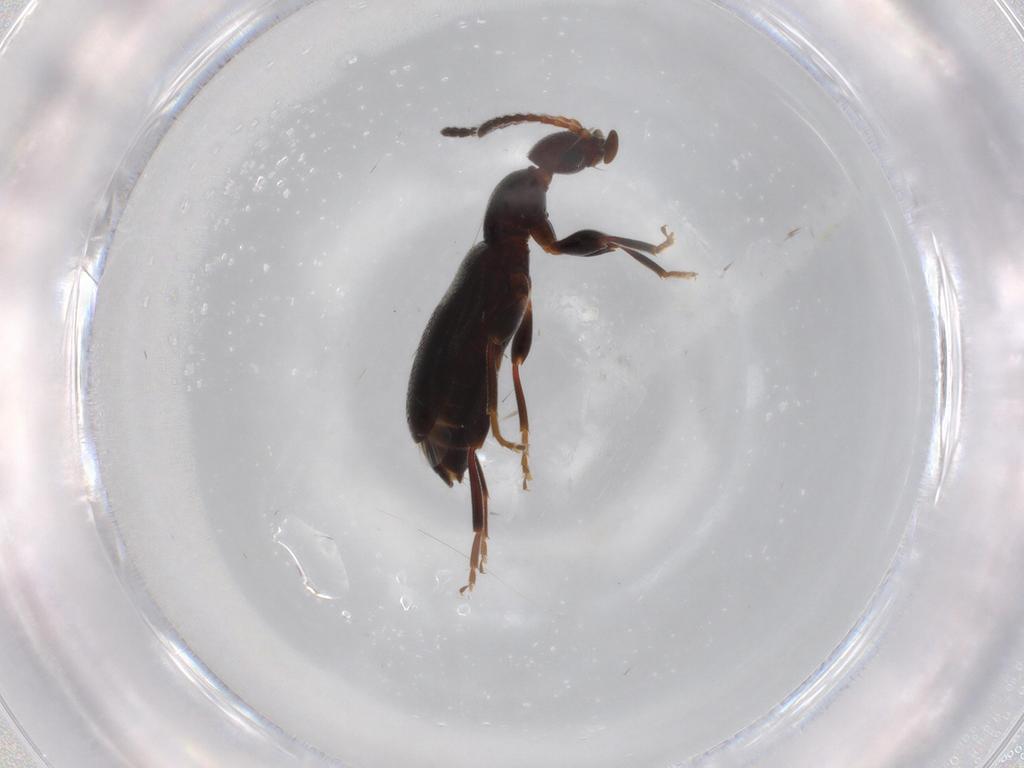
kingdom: Animalia
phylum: Arthropoda
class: Insecta
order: Coleoptera
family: Anthicidae
